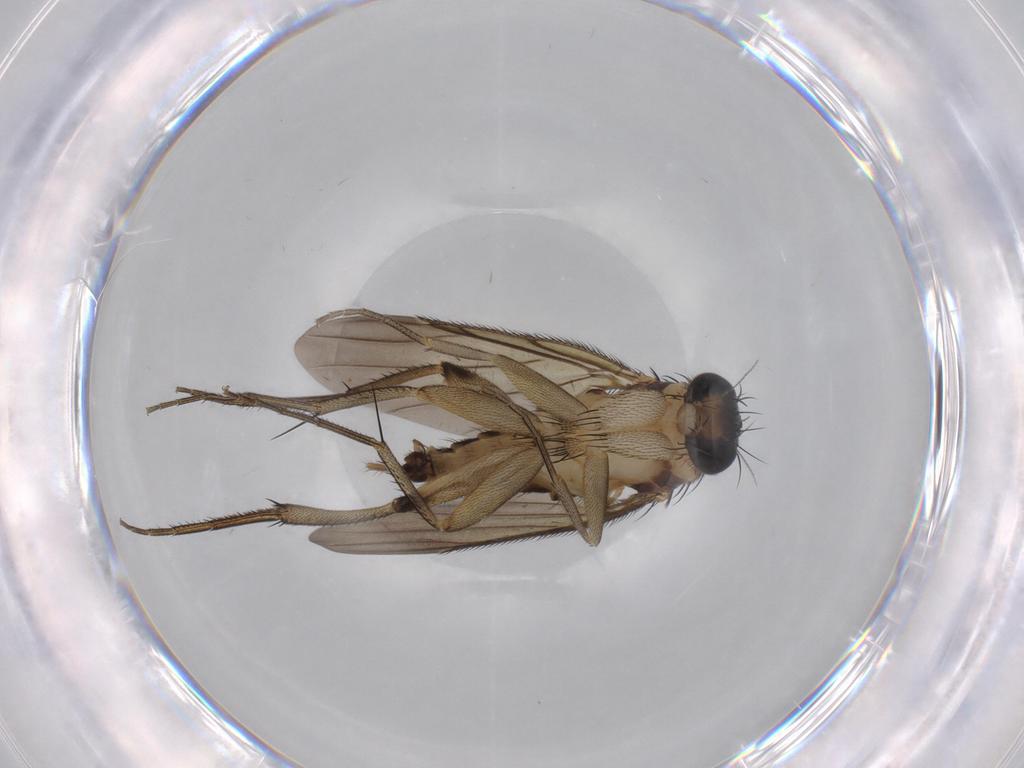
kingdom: Animalia
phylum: Arthropoda
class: Insecta
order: Diptera
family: Phoridae
